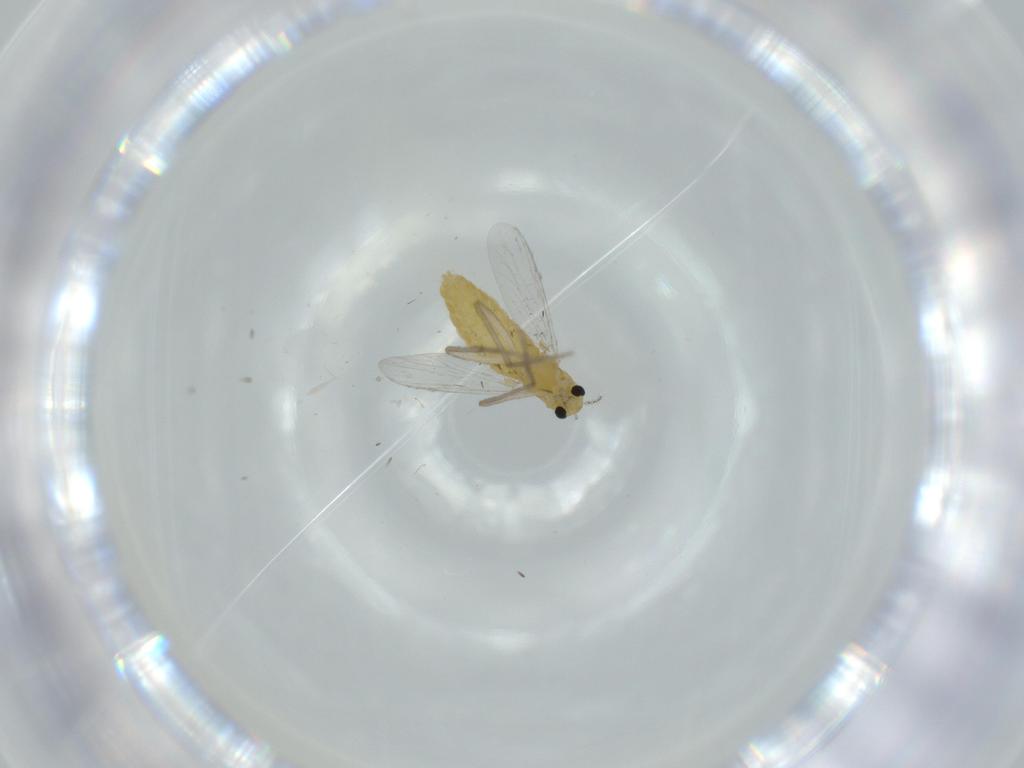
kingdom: Animalia
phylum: Arthropoda
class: Insecta
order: Diptera
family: Chironomidae
